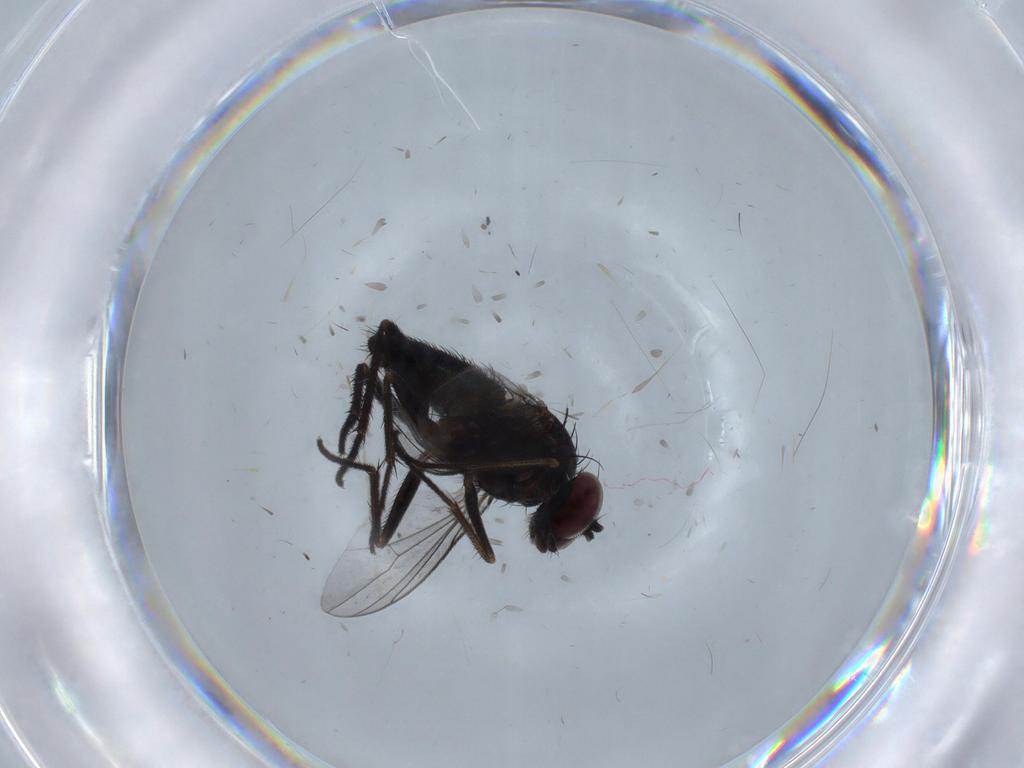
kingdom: Animalia
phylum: Arthropoda
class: Insecta
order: Diptera
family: Dolichopodidae
